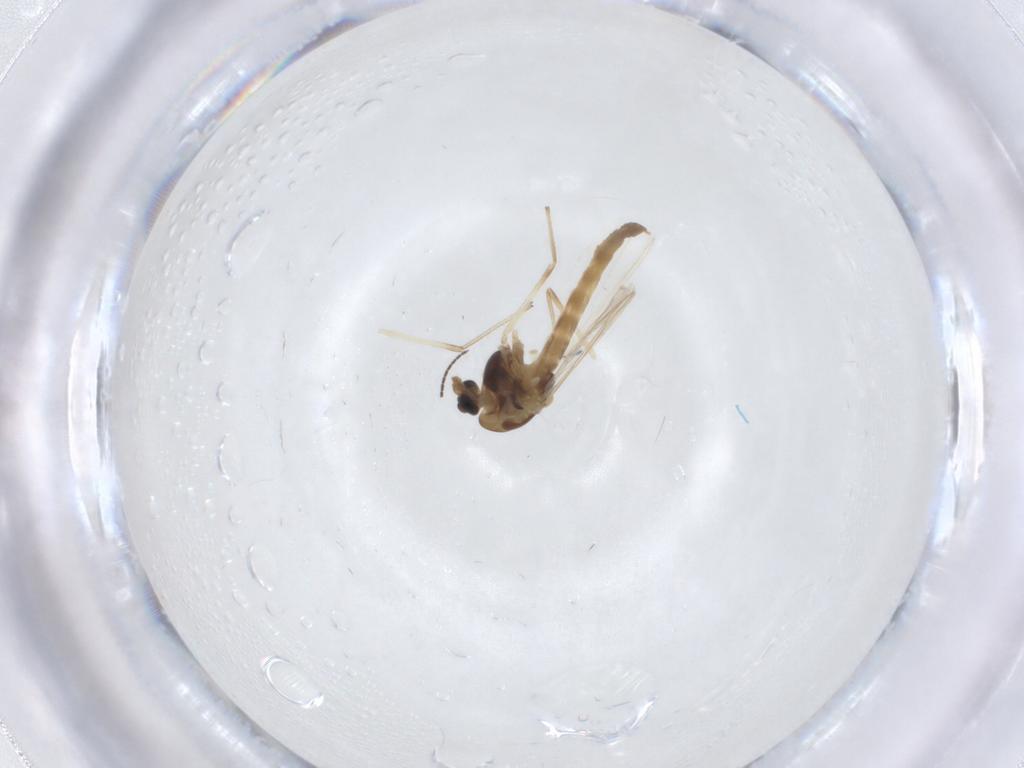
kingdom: Animalia
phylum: Arthropoda
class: Insecta
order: Diptera
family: Chironomidae
